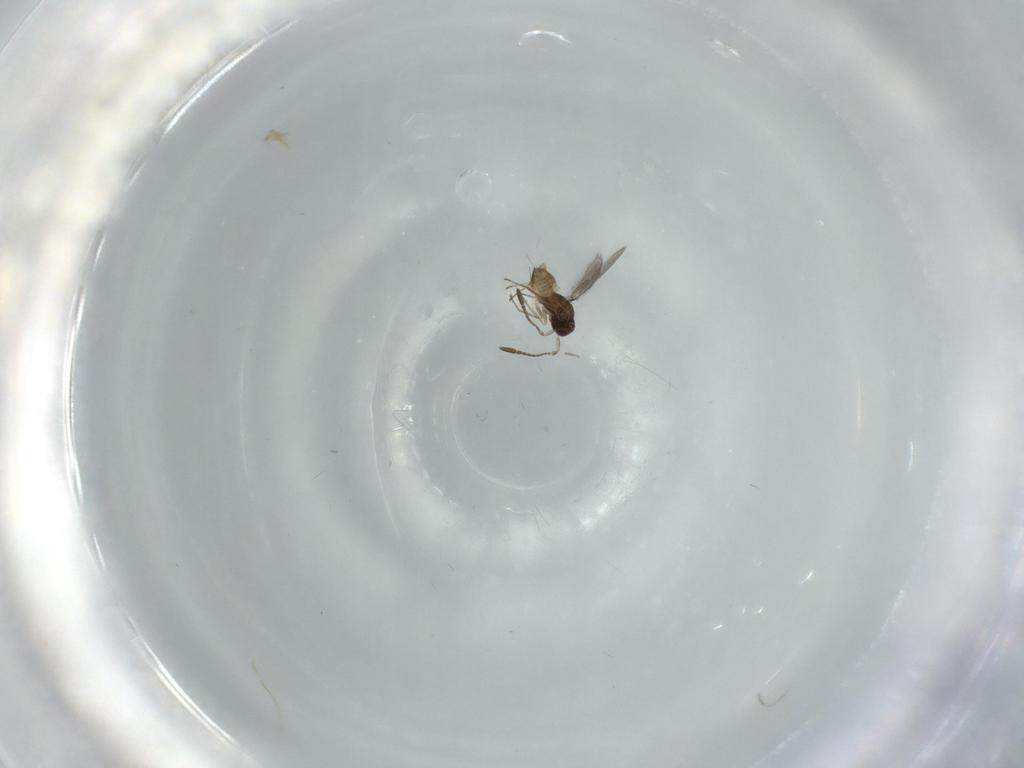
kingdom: Animalia
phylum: Arthropoda
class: Insecta
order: Hymenoptera
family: Mymaridae
